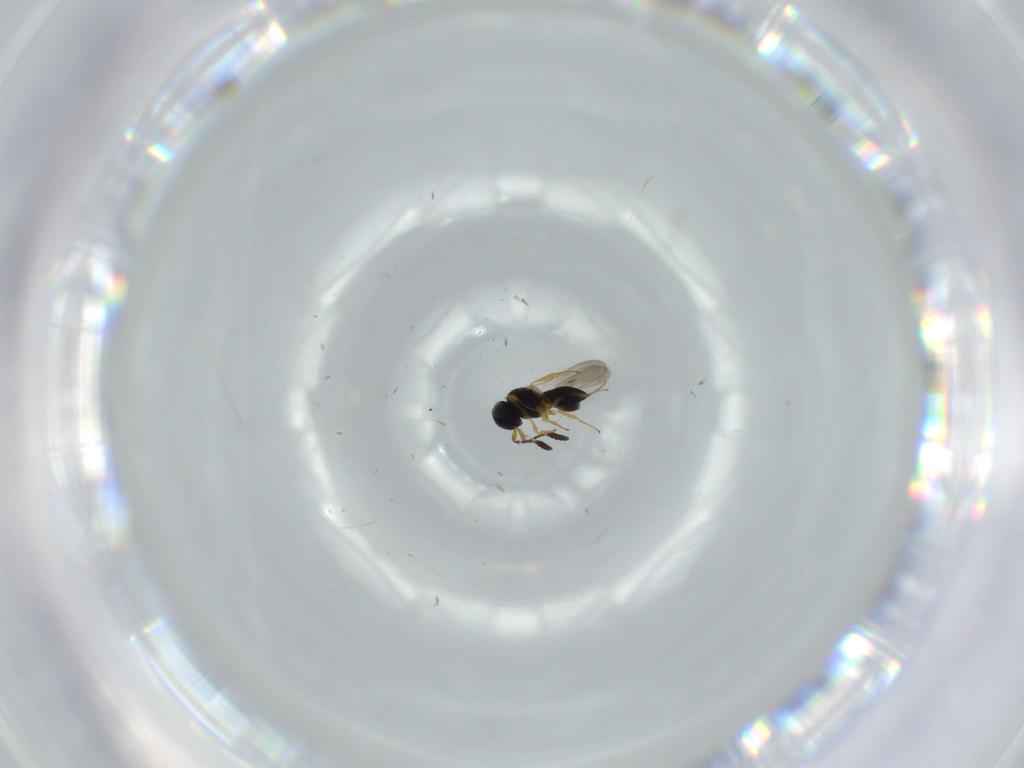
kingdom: Animalia
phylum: Arthropoda
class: Insecta
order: Hymenoptera
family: Scelionidae
